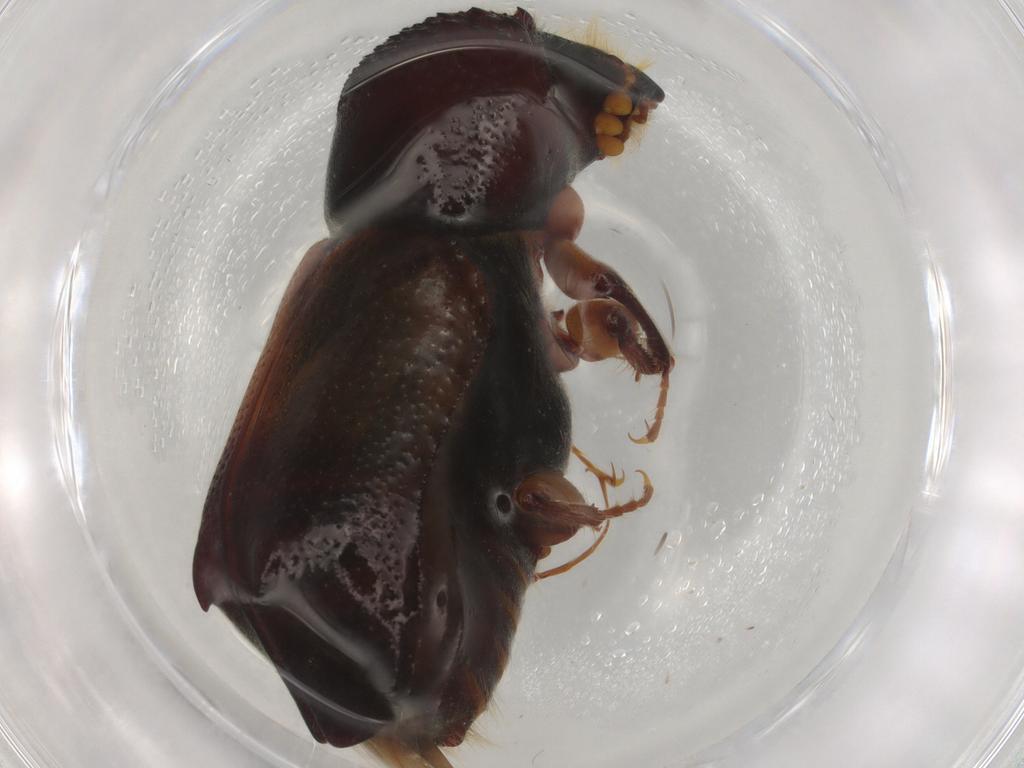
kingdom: Animalia
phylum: Arthropoda
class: Insecta
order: Coleoptera
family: Bostrichidae
